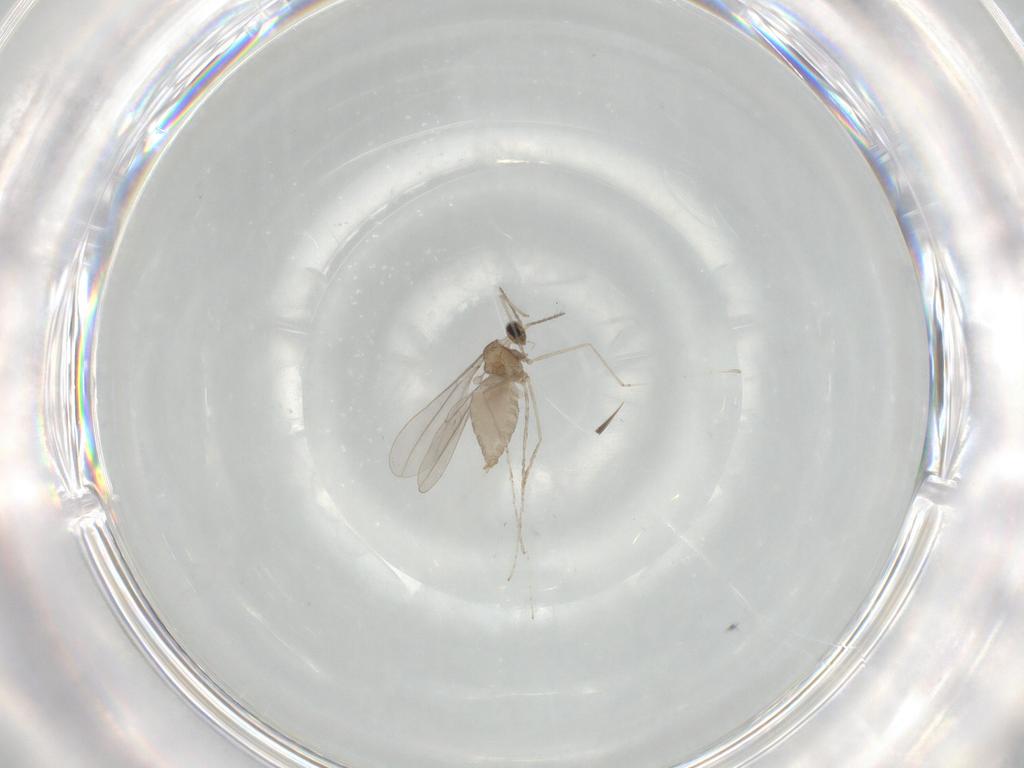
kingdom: Animalia
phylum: Arthropoda
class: Insecta
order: Diptera
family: Cecidomyiidae
